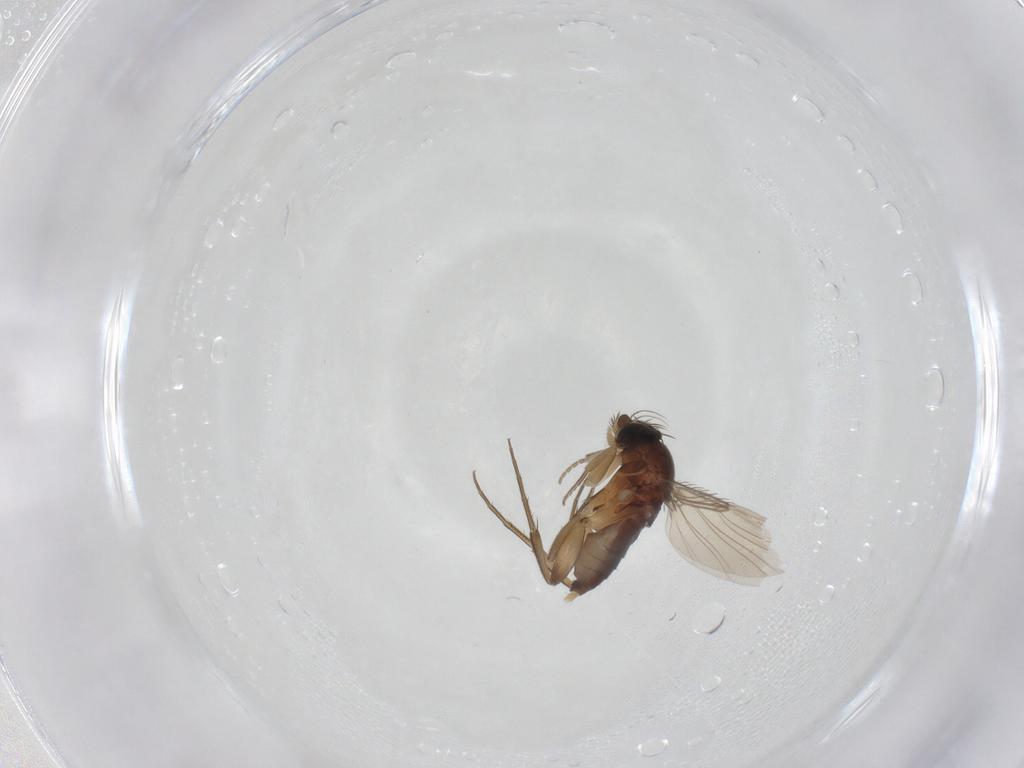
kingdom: Animalia
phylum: Arthropoda
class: Insecta
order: Diptera
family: Phoridae
